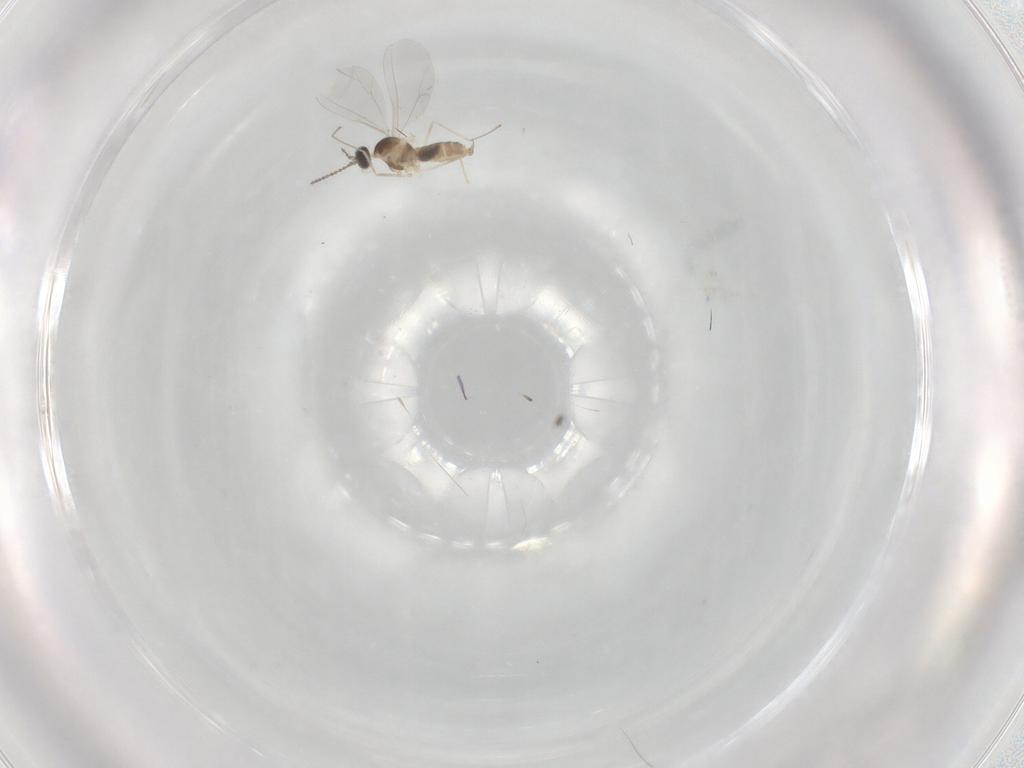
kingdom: Animalia
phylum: Arthropoda
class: Insecta
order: Diptera
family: Cecidomyiidae
